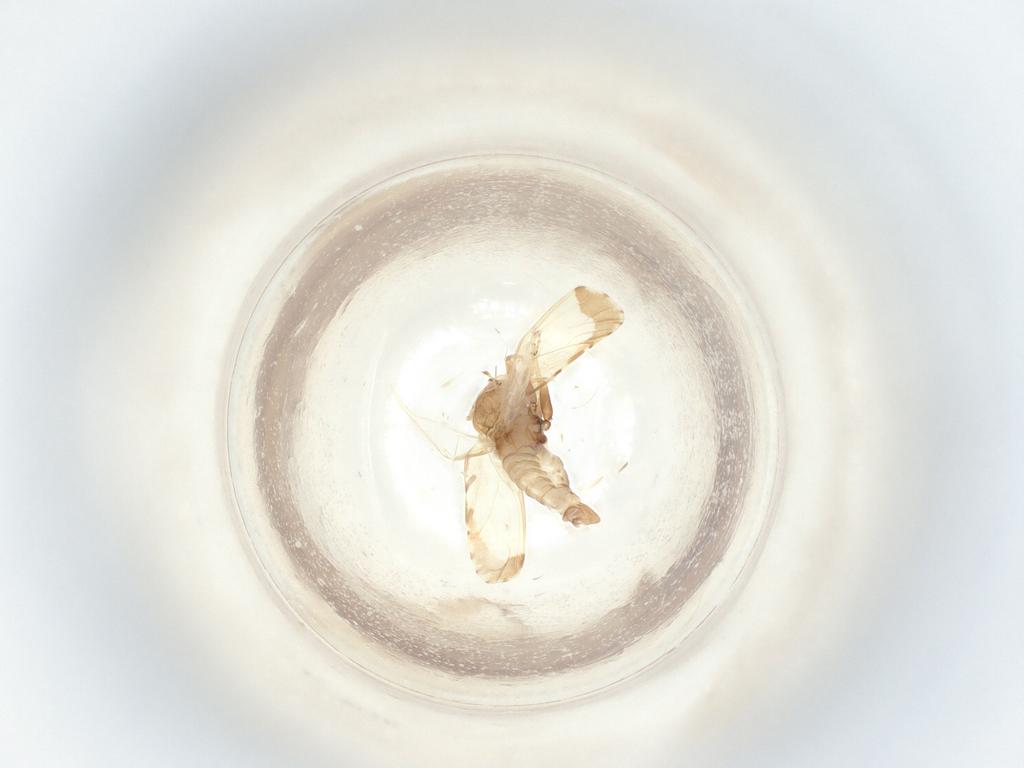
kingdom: Animalia
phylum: Arthropoda
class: Insecta
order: Hemiptera
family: Psyllidae
